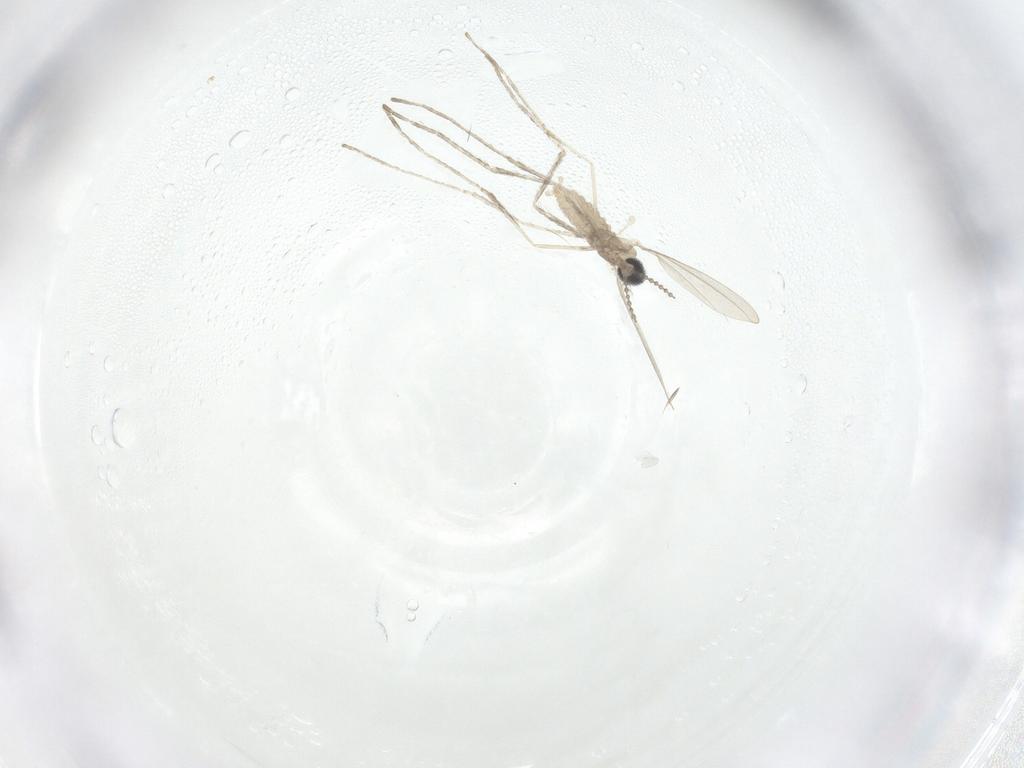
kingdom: Animalia
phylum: Arthropoda
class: Insecta
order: Diptera
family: Cecidomyiidae
